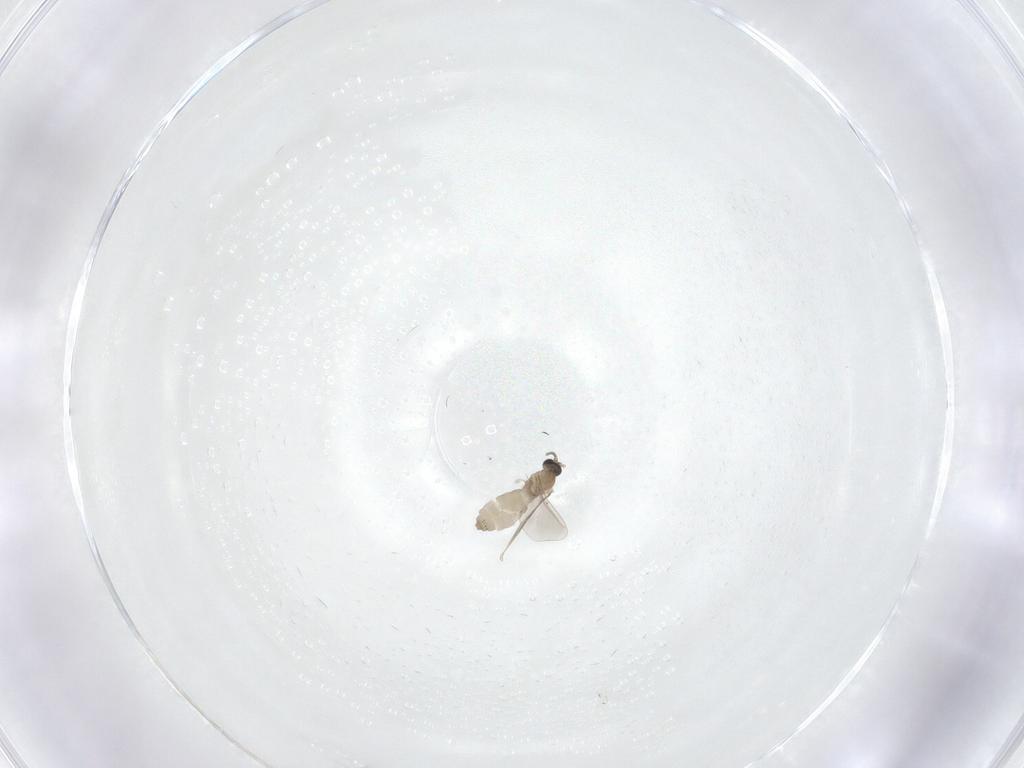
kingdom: Animalia
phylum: Arthropoda
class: Insecta
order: Diptera
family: Cecidomyiidae
